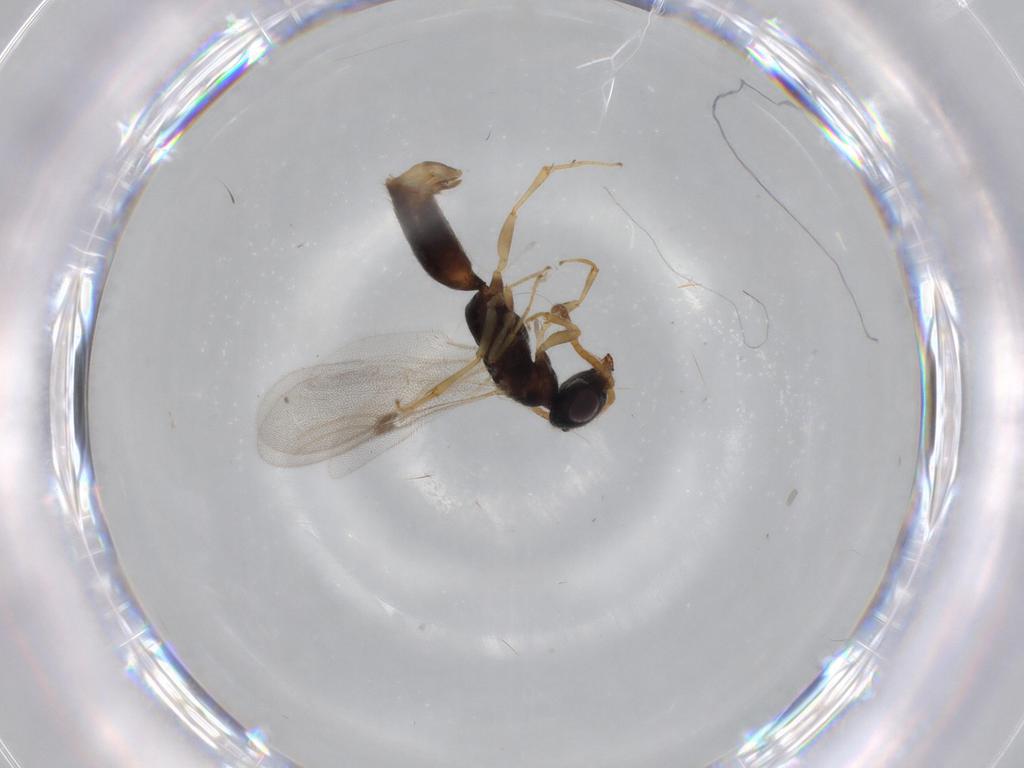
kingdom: Animalia
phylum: Arthropoda
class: Insecta
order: Hymenoptera
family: Bethylidae
